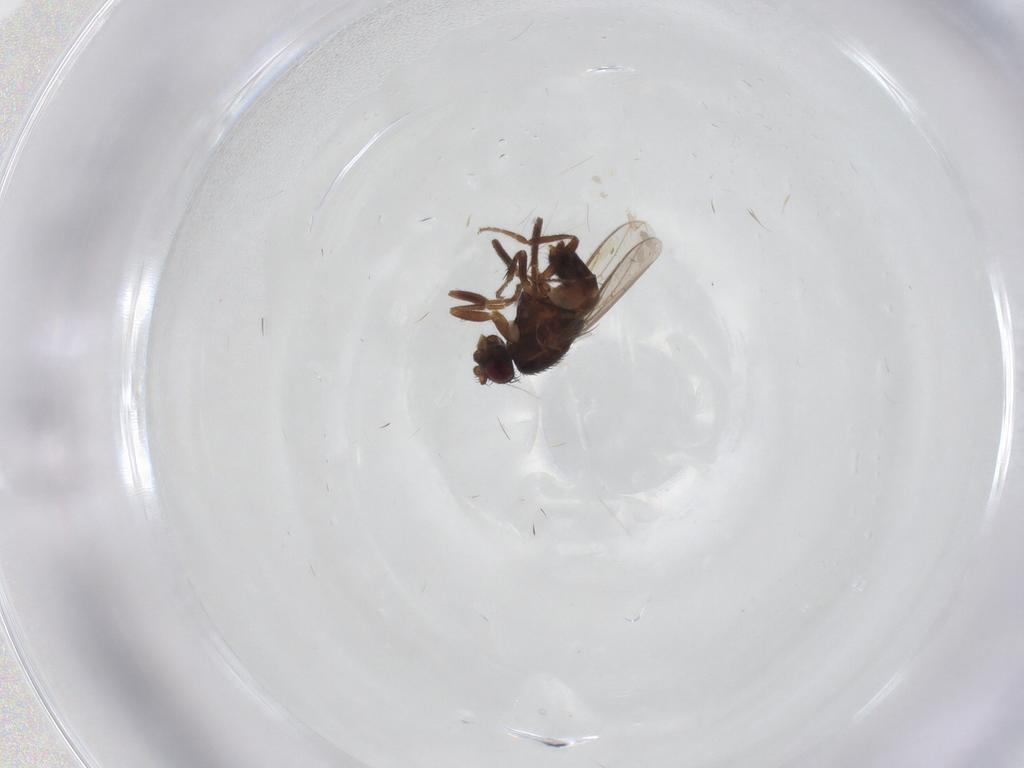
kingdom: Animalia
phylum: Arthropoda
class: Insecta
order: Diptera
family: Sphaeroceridae
